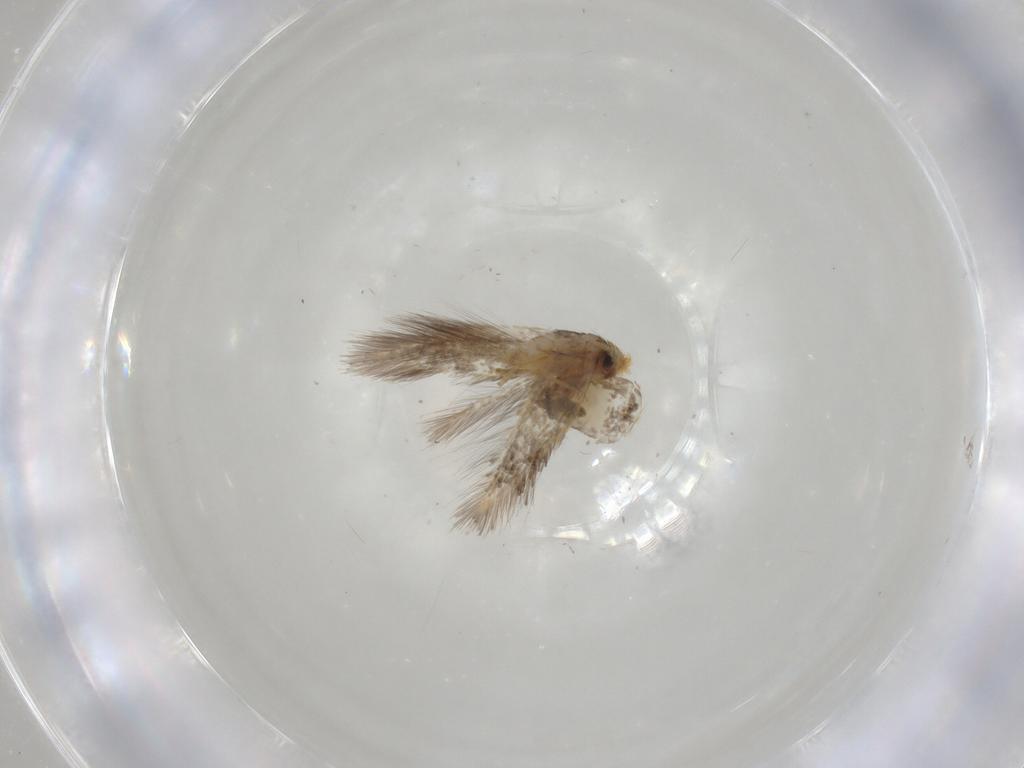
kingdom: Animalia
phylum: Arthropoda
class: Insecta
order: Lepidoptera
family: Nepticulidae
